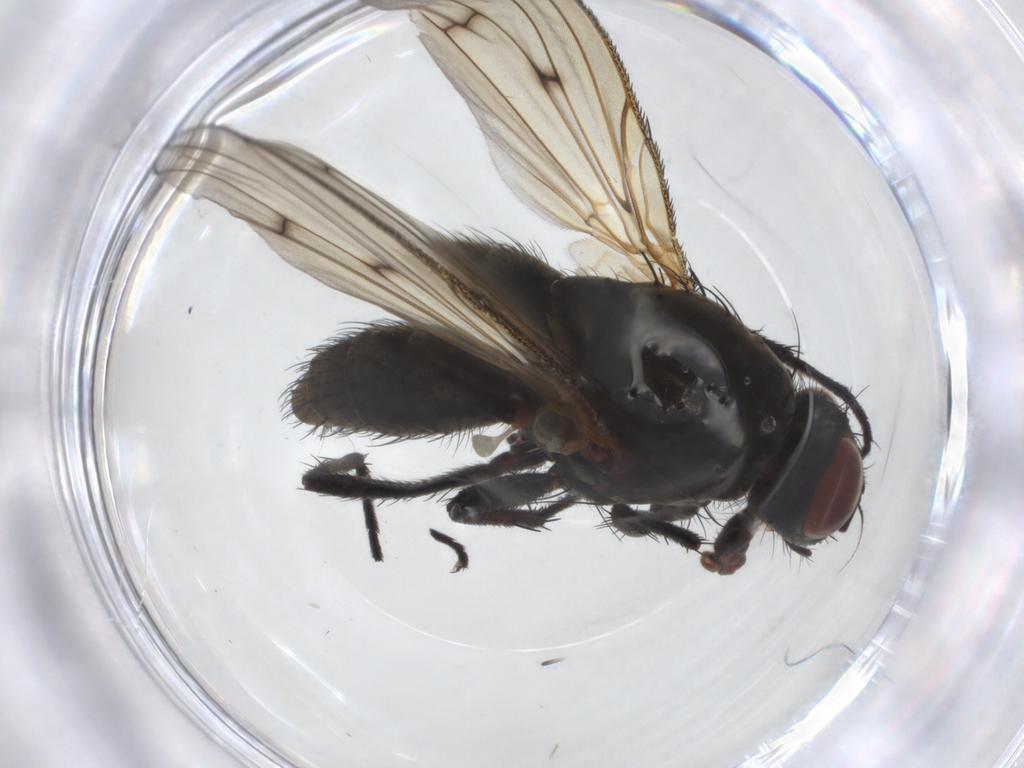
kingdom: Animalia
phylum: Arthropoda
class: Insecta
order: Diptera
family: Anthomyiidae
